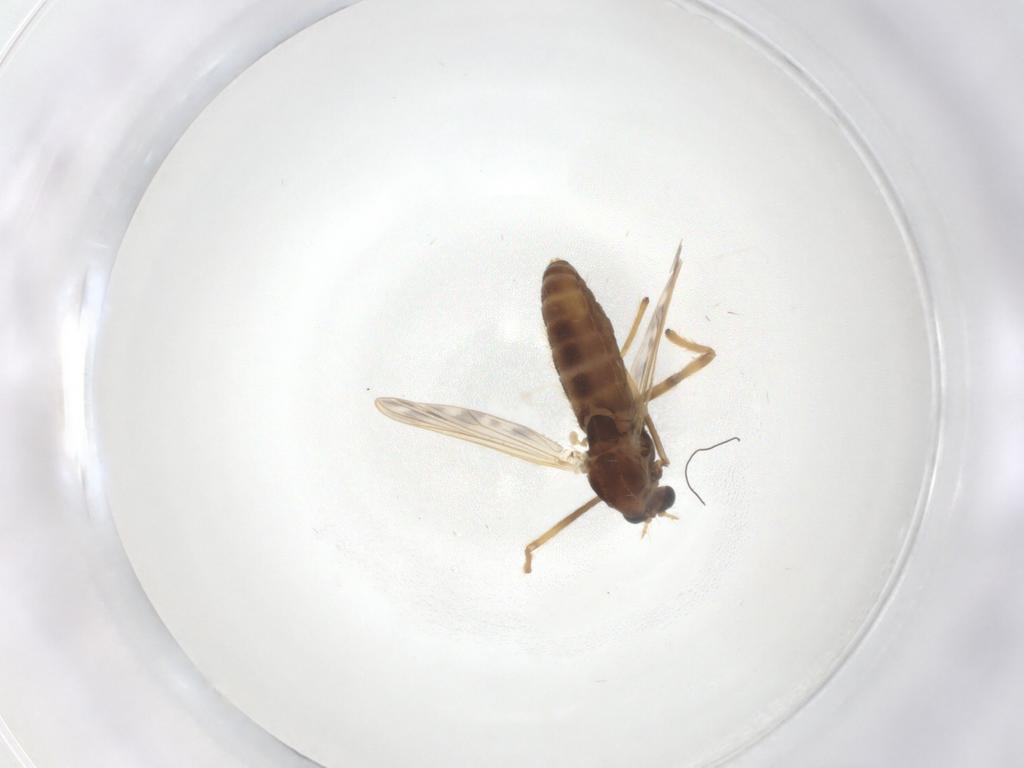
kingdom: Animalia
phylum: Arthropoda
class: Insecta
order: Diptera
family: Chironomidae
